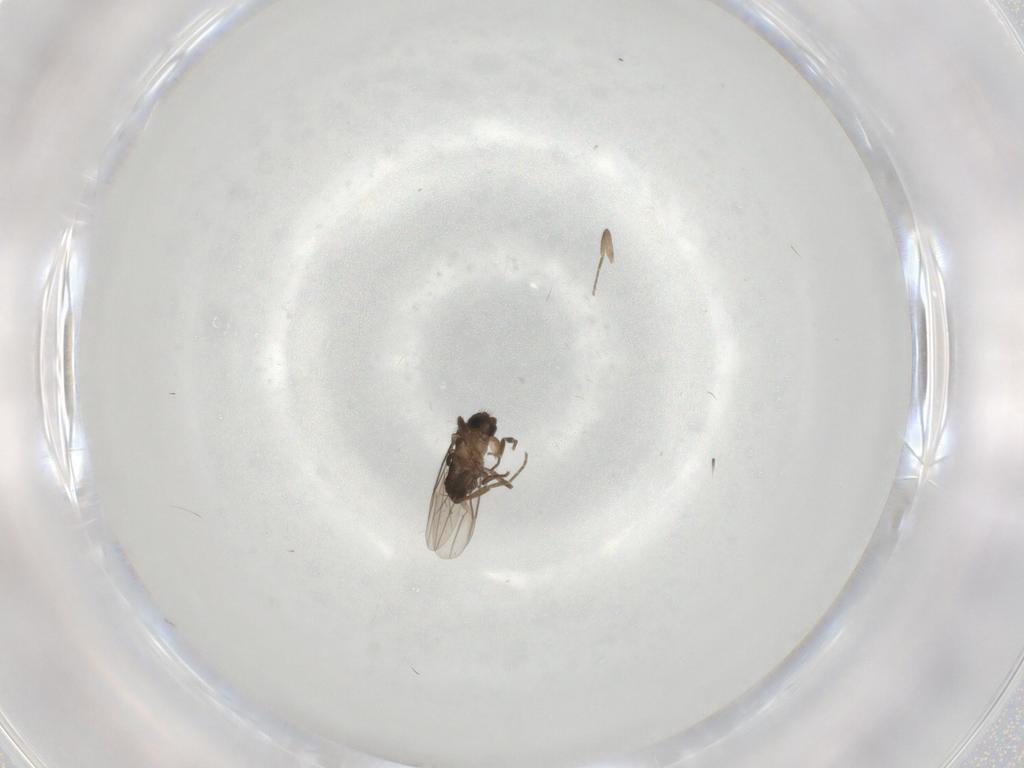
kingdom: Animalia
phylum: Arthropoda
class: Insecta
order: Diptera
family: Phoridae
